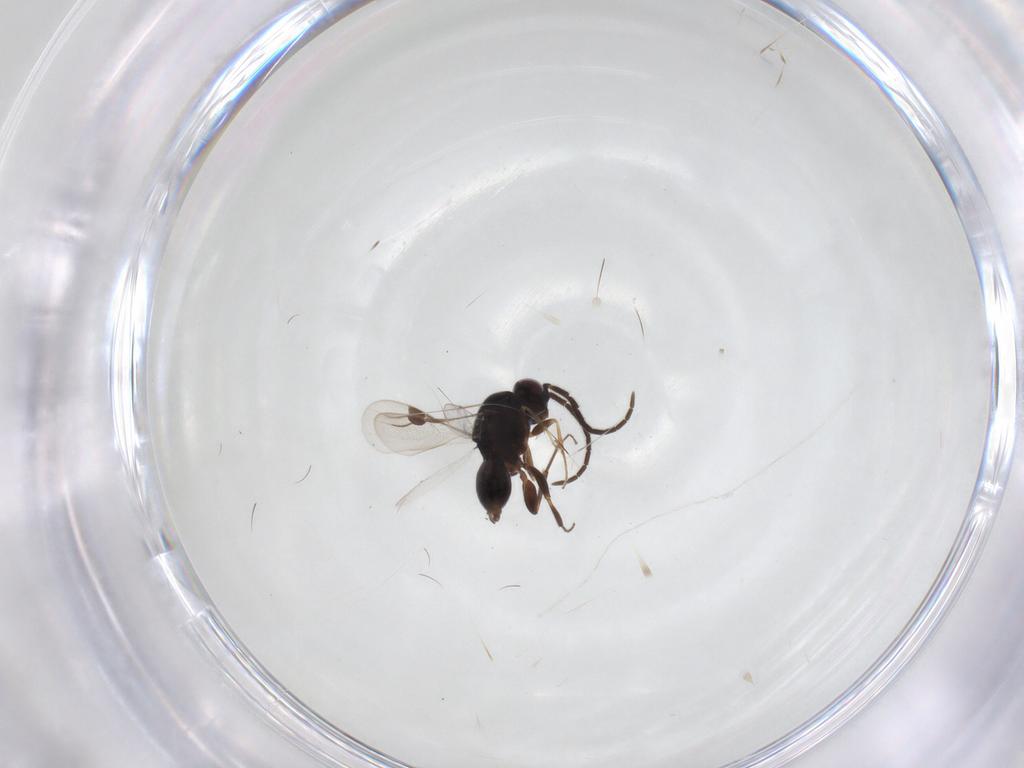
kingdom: Animalia
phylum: Arthropoda
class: Insecta
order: Hymenoptera
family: Megaspilidae
